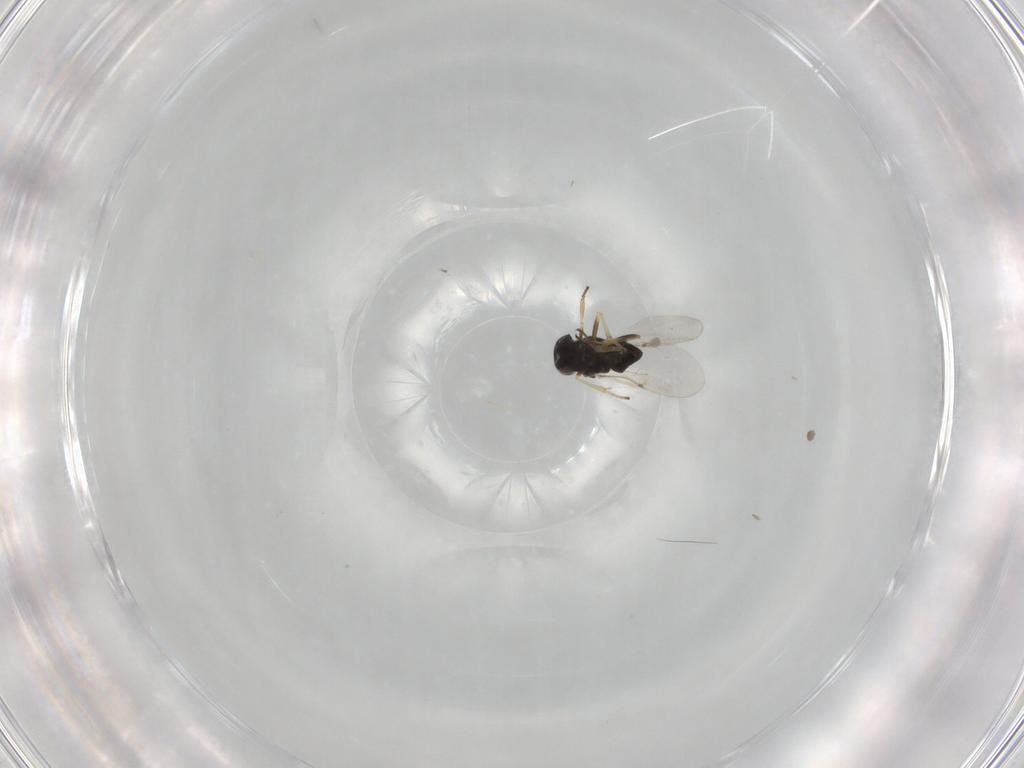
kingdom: Animalia
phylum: Arthropoda
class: Insecta
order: Hymenoptera
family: Encyrtidae
